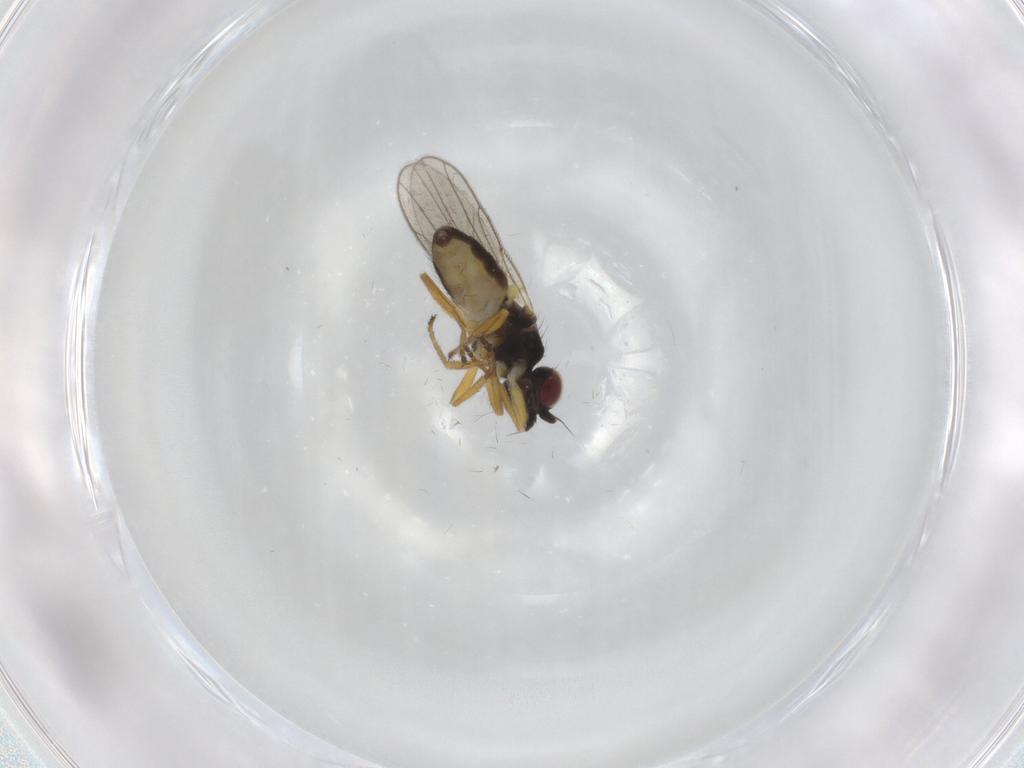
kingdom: Animalia
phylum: Arthropoda
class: Insecta
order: Diptera
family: Chloropidae
